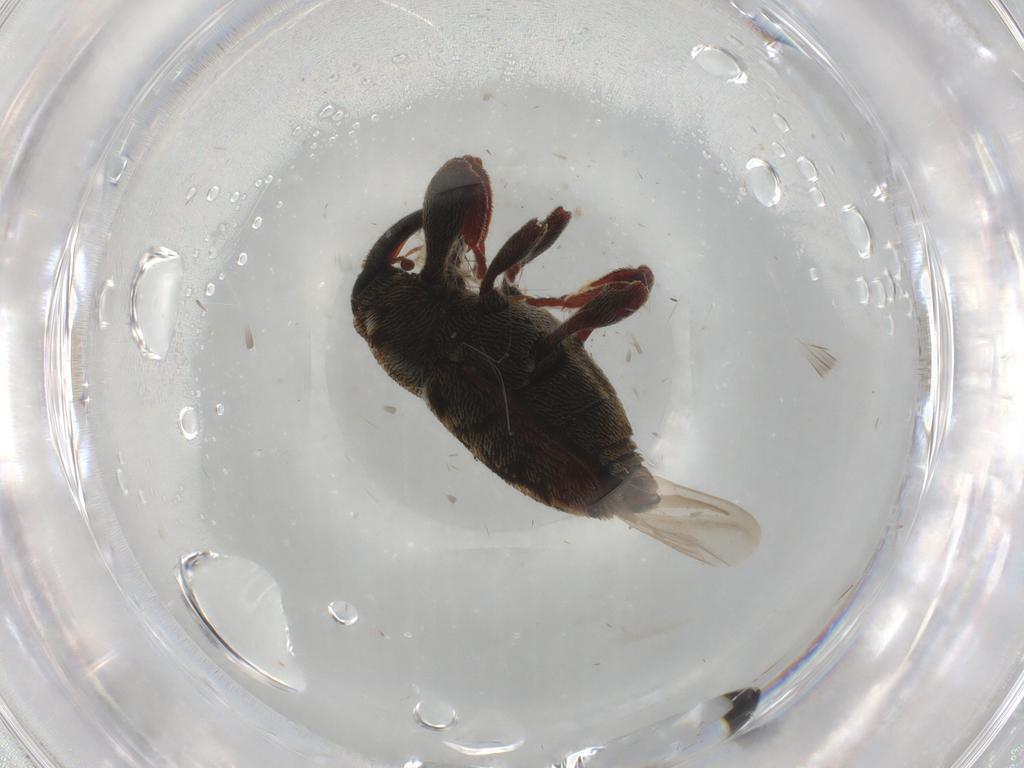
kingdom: Animalia
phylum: Arthropoda
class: Insecta
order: Coleoptera
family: Curculionidae
